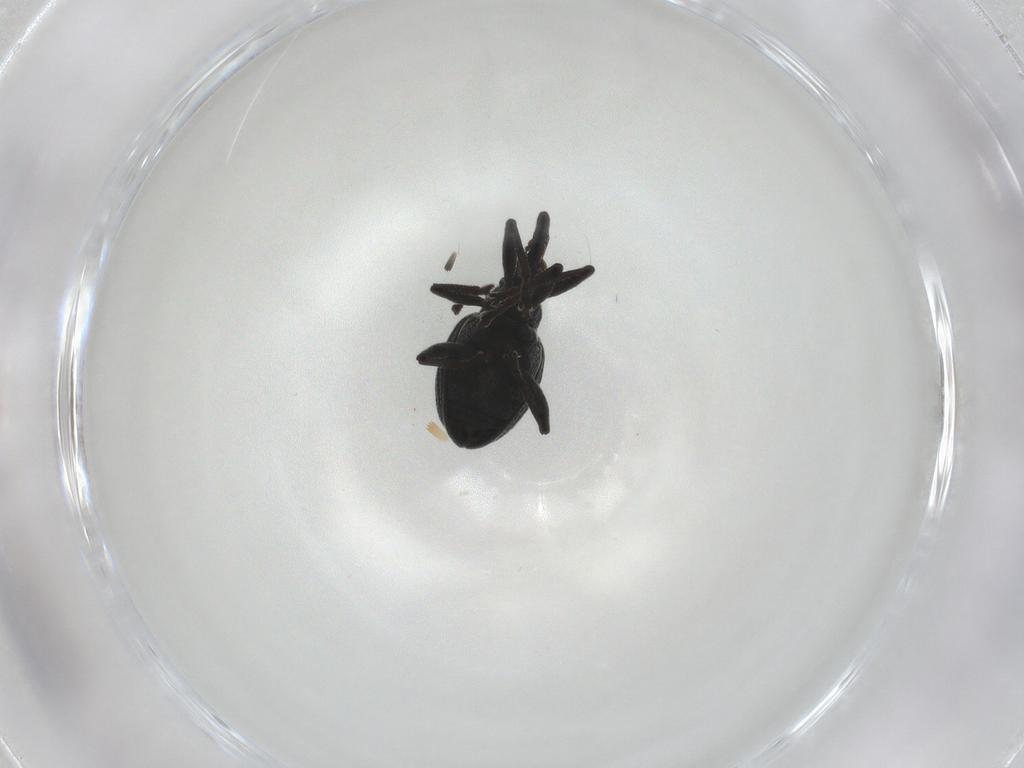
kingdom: Animalia
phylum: Arthropoda
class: Insecta
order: Coleoptera
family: Brentidae
